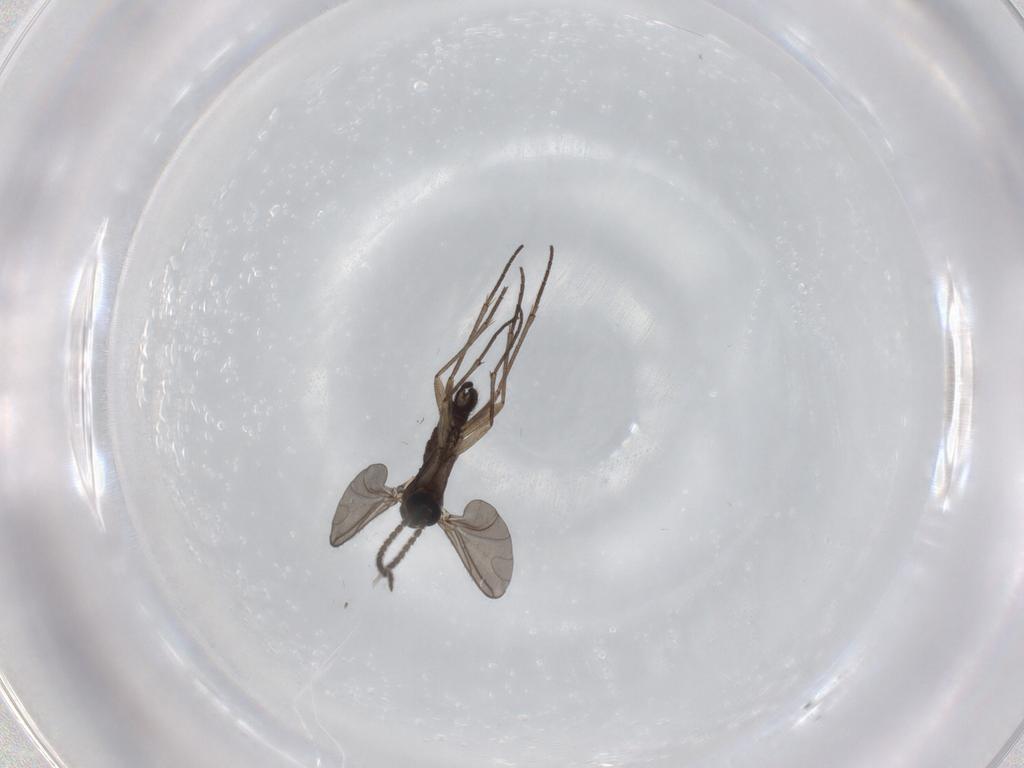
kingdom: Animalia
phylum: Arthropoda
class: Insecta
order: Diptera
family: Sciaridae
